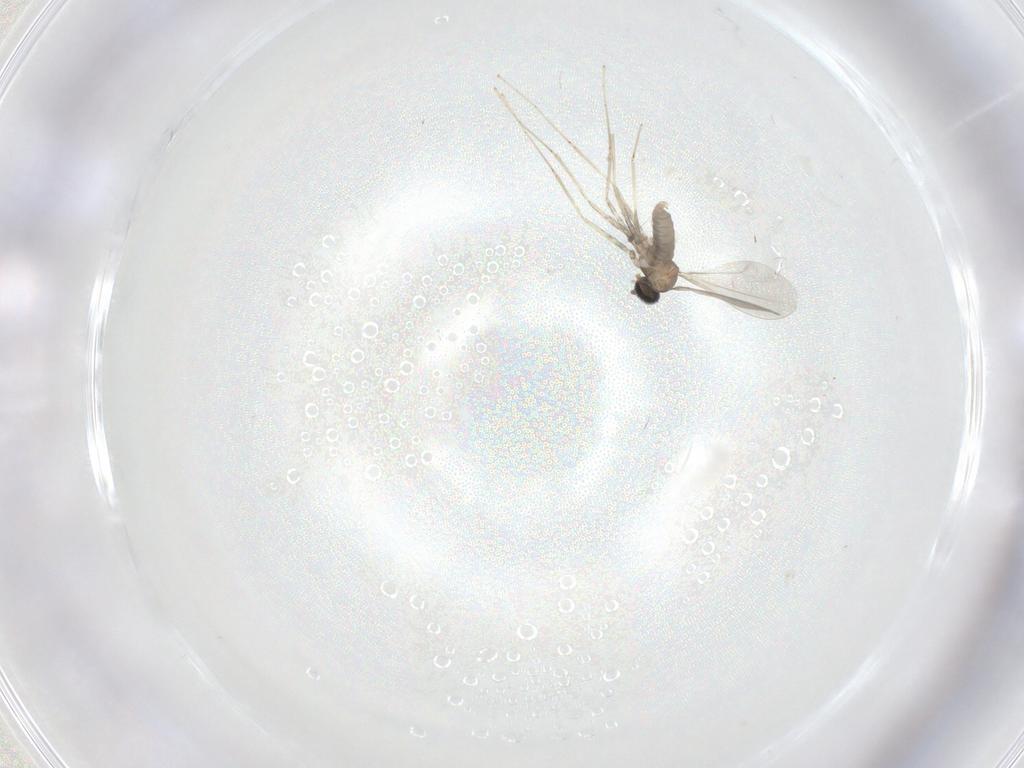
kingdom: Animalia
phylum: Arthropoda
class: Insecta
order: Diptera
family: Cecidomyiidae
